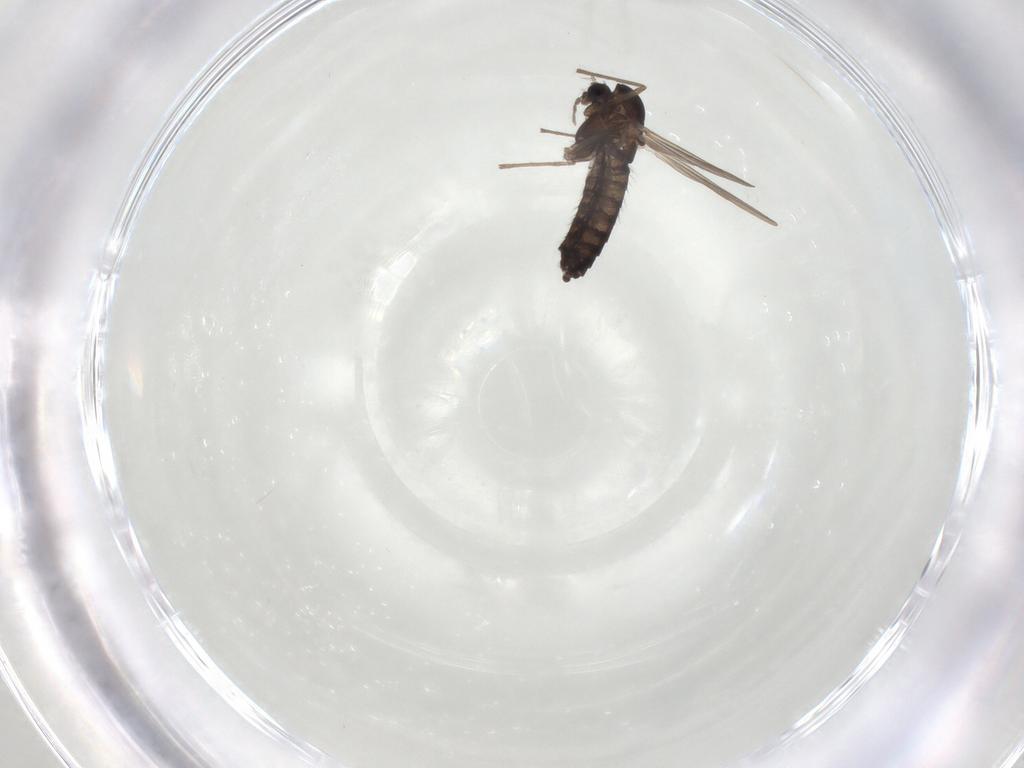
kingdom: Animalia
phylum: Arthropoda
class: Insecta
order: Diptera
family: Chironomidae
